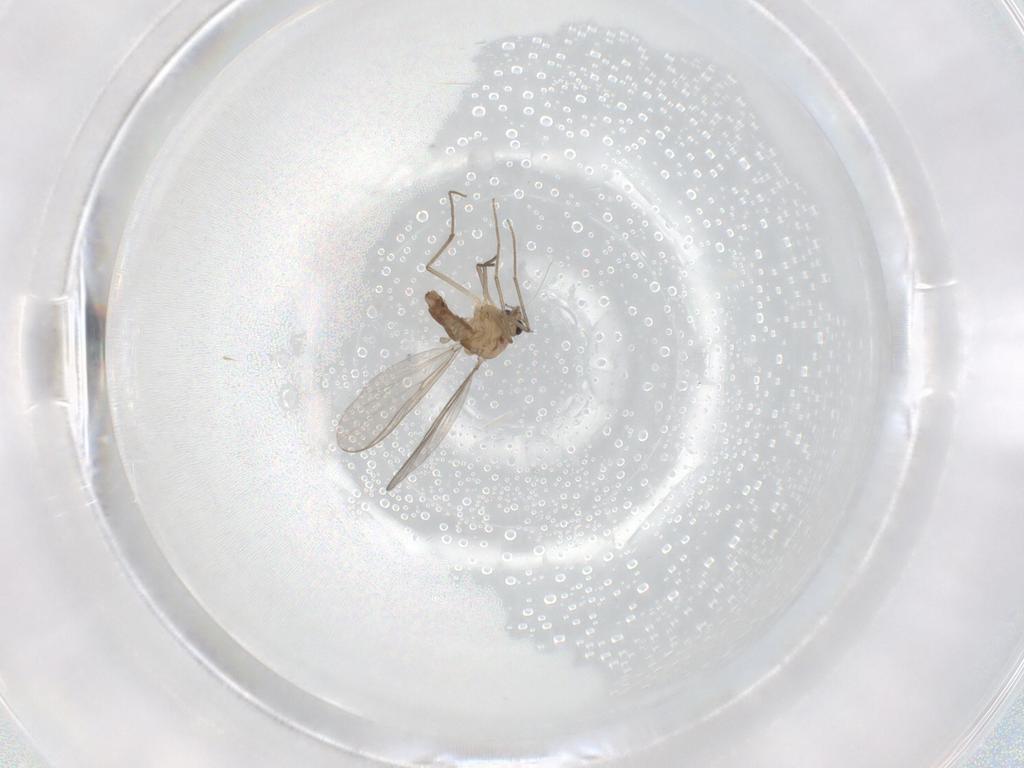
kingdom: Animalia
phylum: Arthropoda
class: Insecta
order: Diptera
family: Chironomidae
